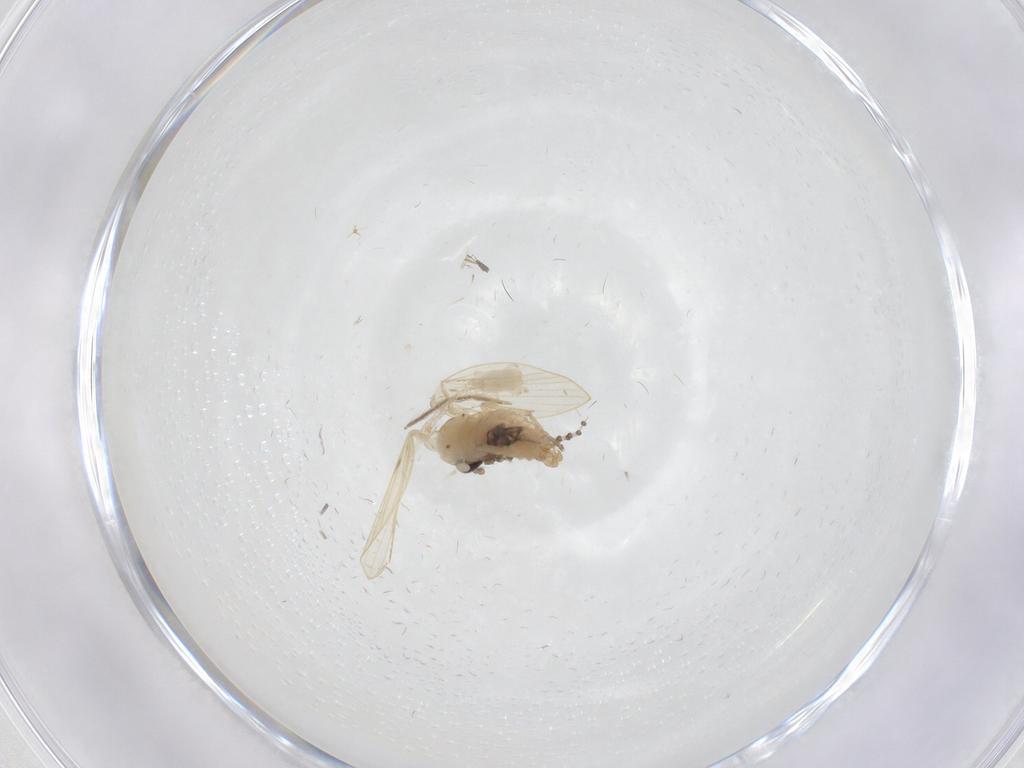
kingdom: Animalia
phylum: Arthropoda
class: Insecta
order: Diptera
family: Psychodidae
